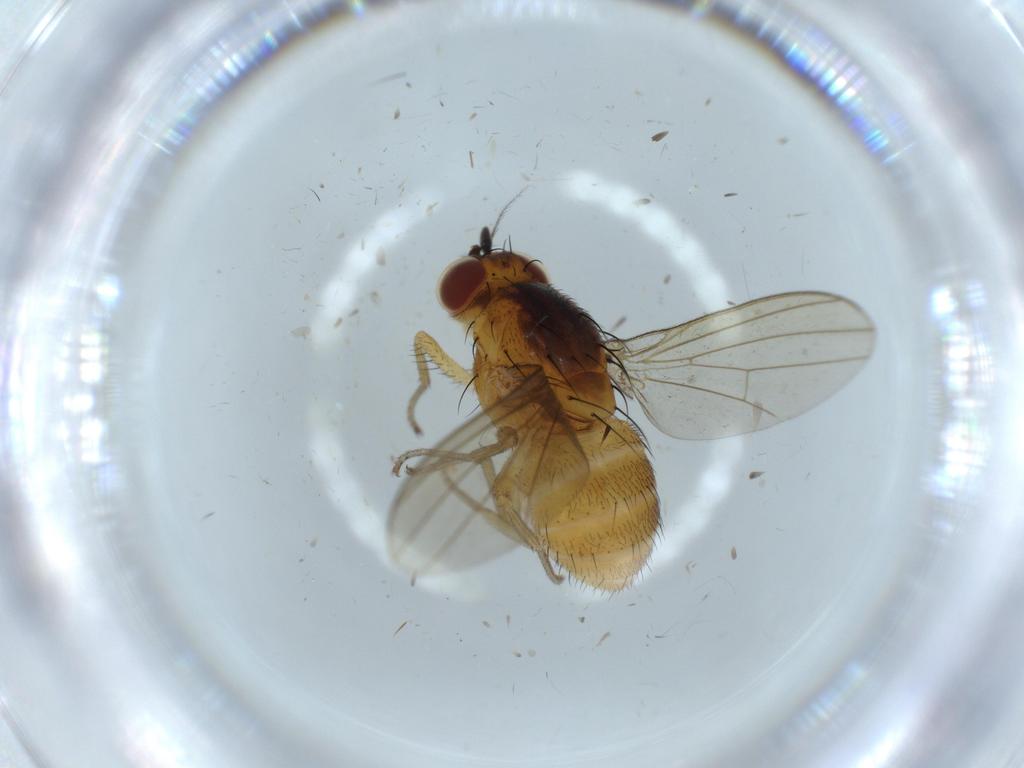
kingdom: Animalia
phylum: Arthropoda
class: Insecta
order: Diptera
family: Lauxaniidae
